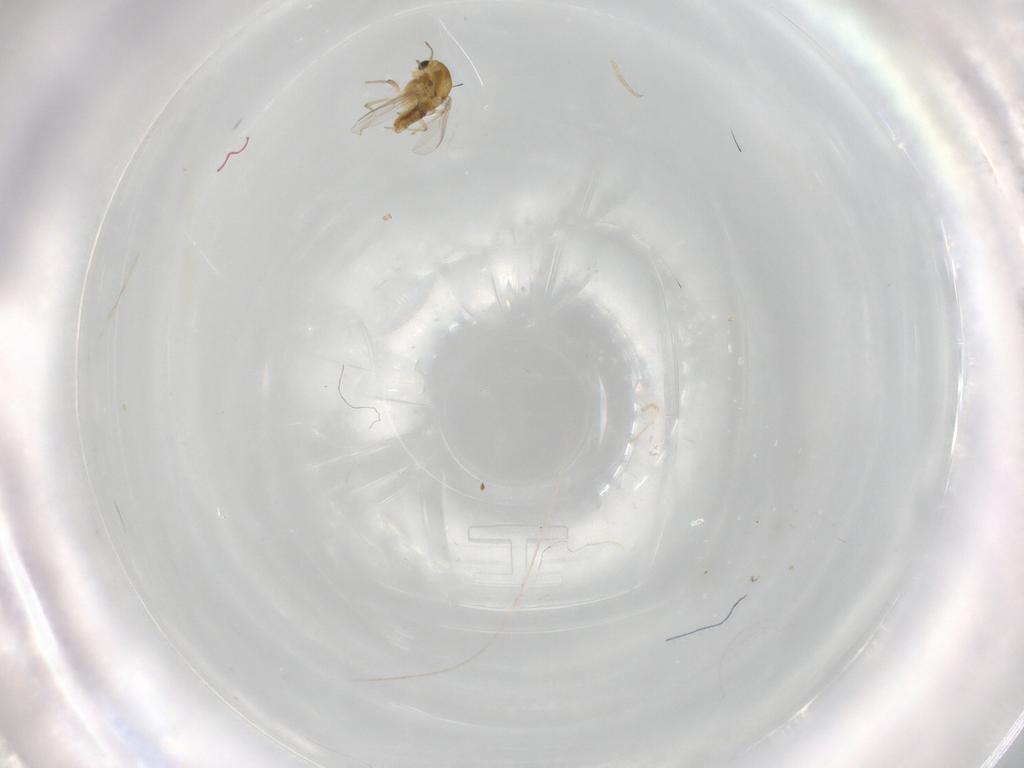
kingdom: Animalia
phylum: Arthropoda
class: Insecta
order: Diptera
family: Chironomidae
